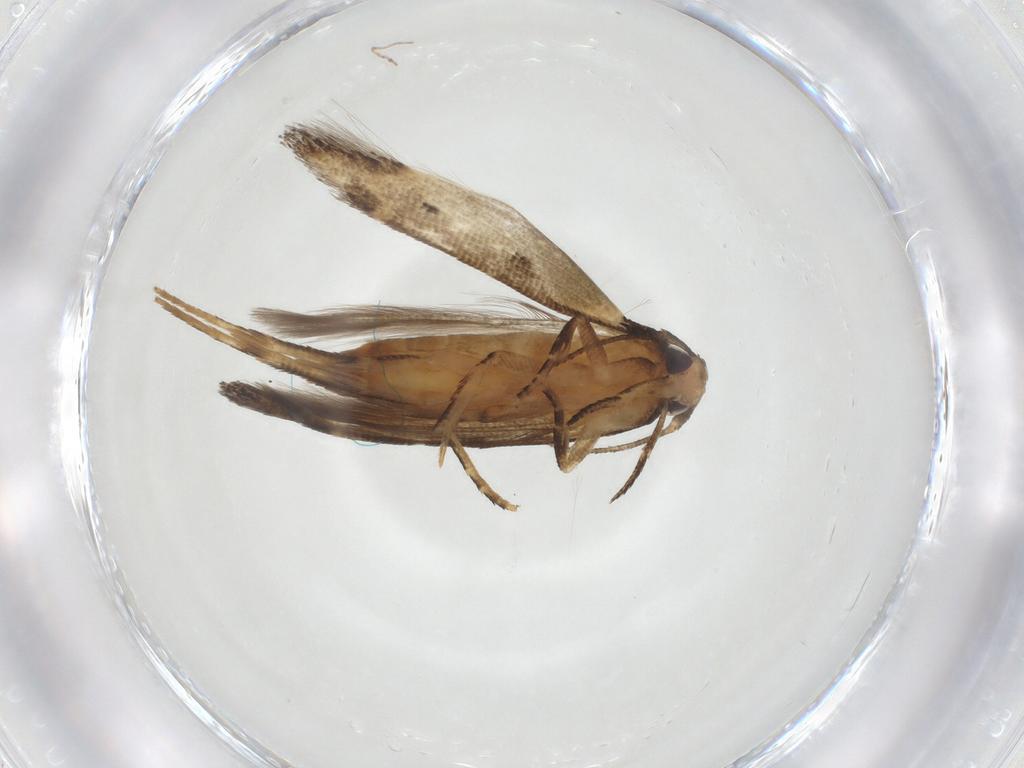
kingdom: Animalia
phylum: Arthropoda
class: Insecta
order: Lepidoptera
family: Cosmopterigidae
